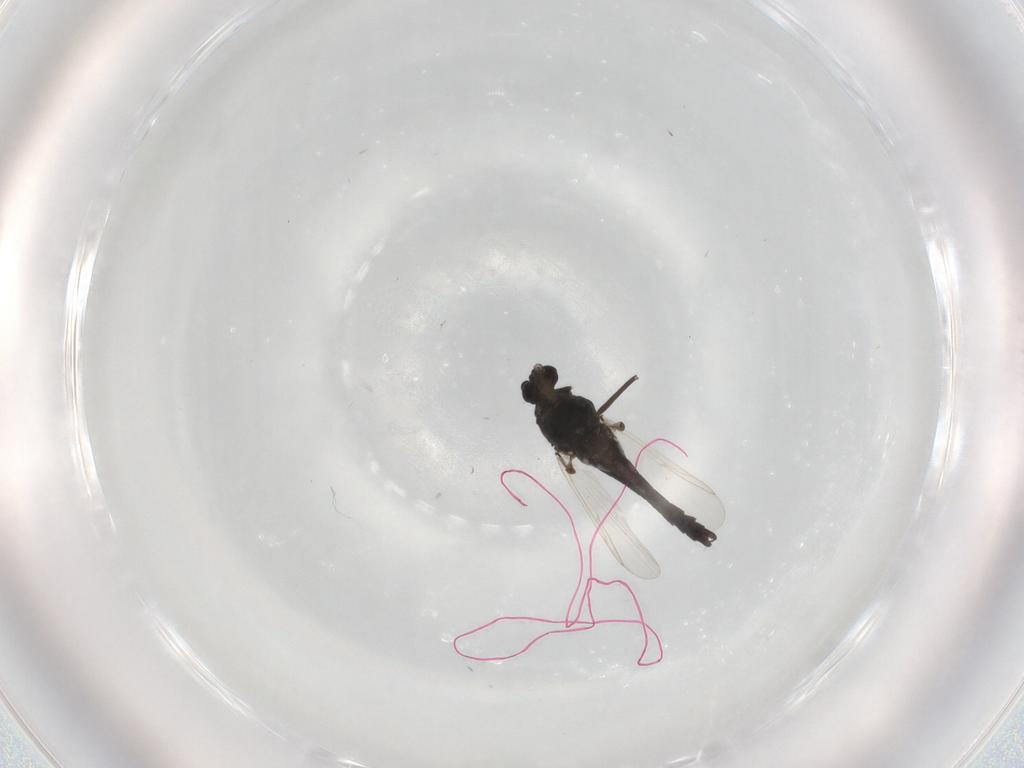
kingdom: Animalia
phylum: Arthropoda
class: Insecta
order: Diptera
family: Chironomidae
